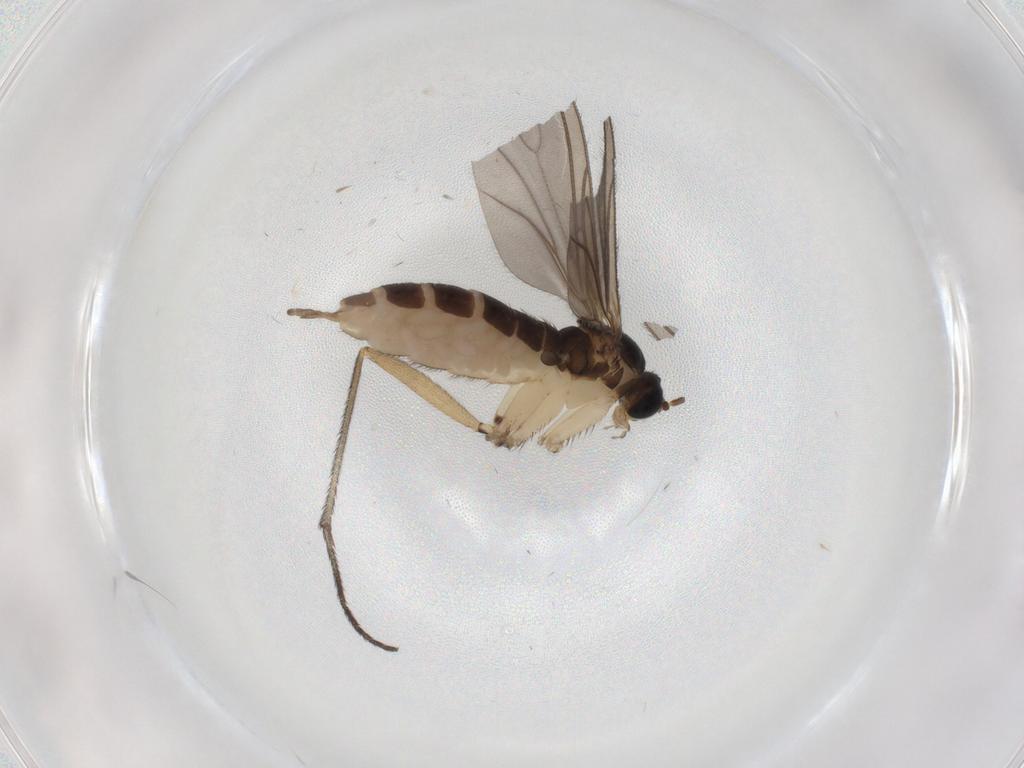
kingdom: Animalia
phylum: Arthropoda
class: Insecta
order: Diptera
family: Sciaridae
